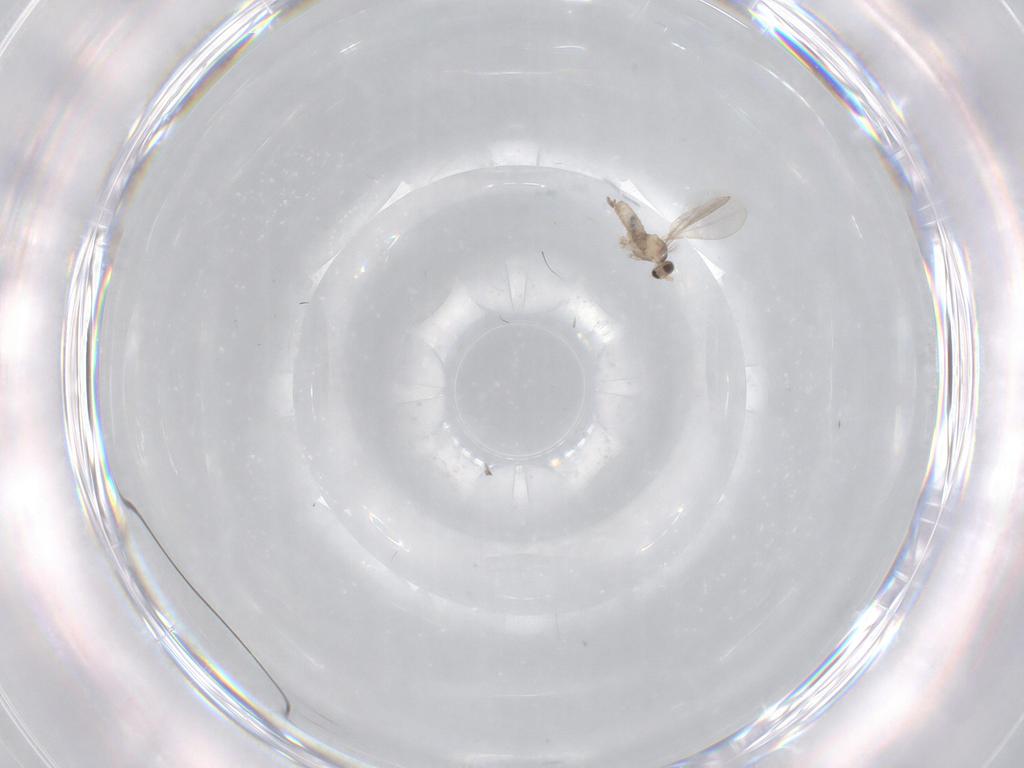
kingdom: Animalia
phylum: Arthropoda
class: Insecta
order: Diptera
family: Cecidomyiidae
